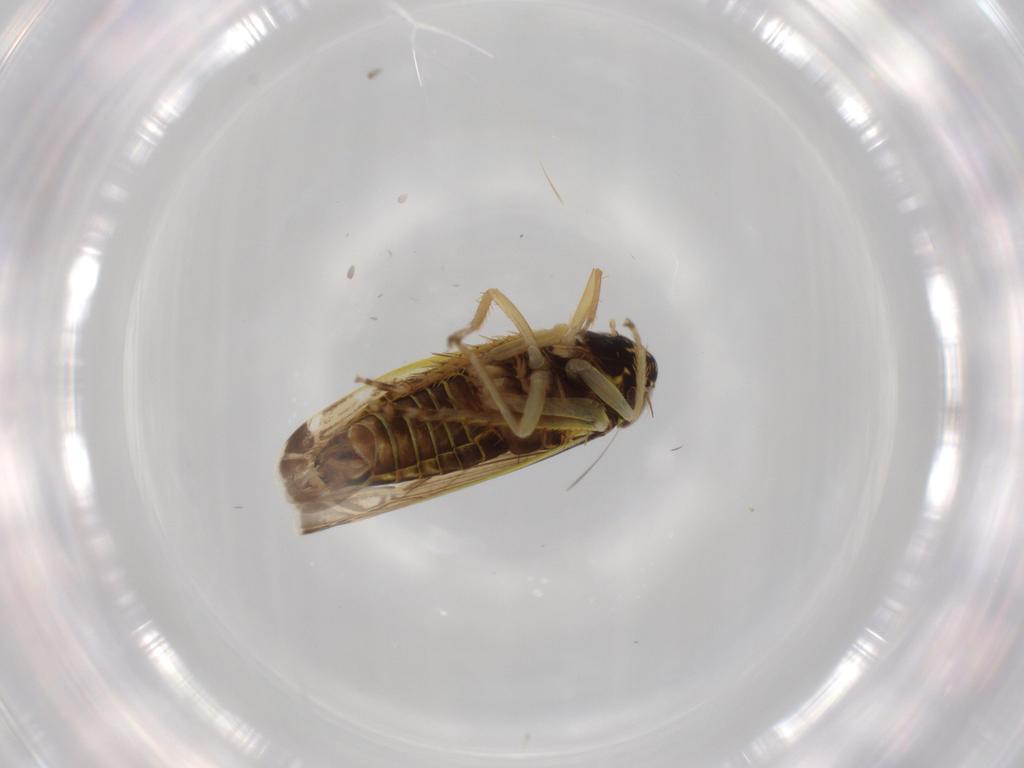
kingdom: Animalia
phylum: Arthropoda
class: Insecta
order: Hemiptera
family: Cicadellidae
